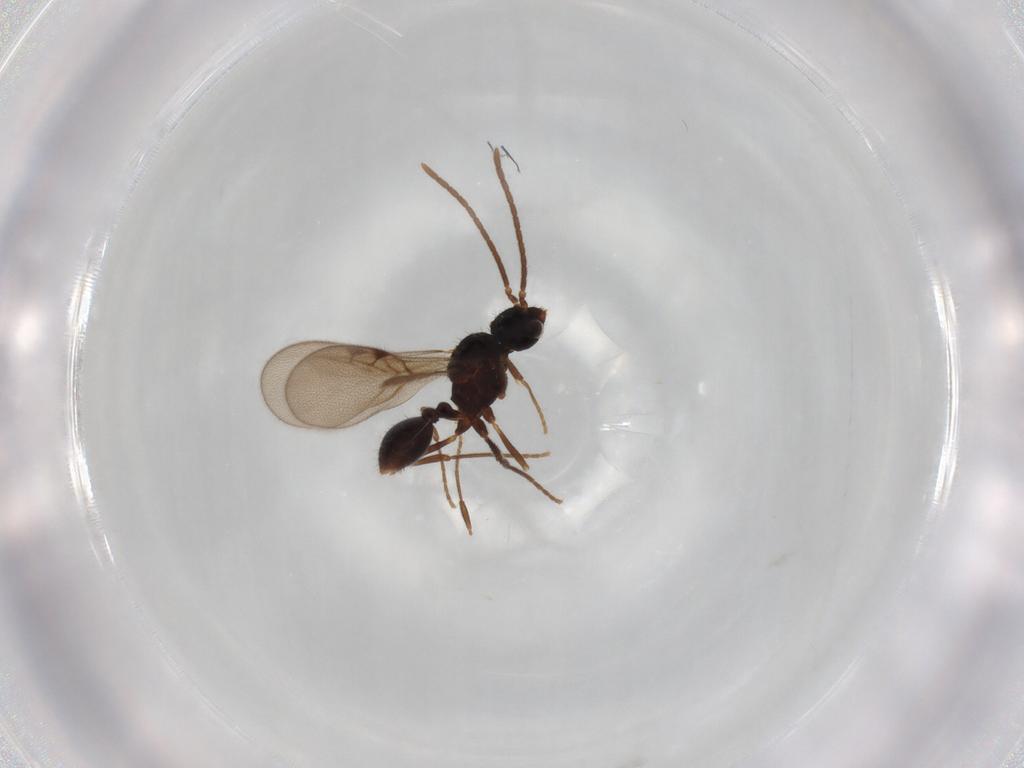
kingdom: Animalia
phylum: Arthropoda
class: Insecta
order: Hymenoptera
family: Formicidae
